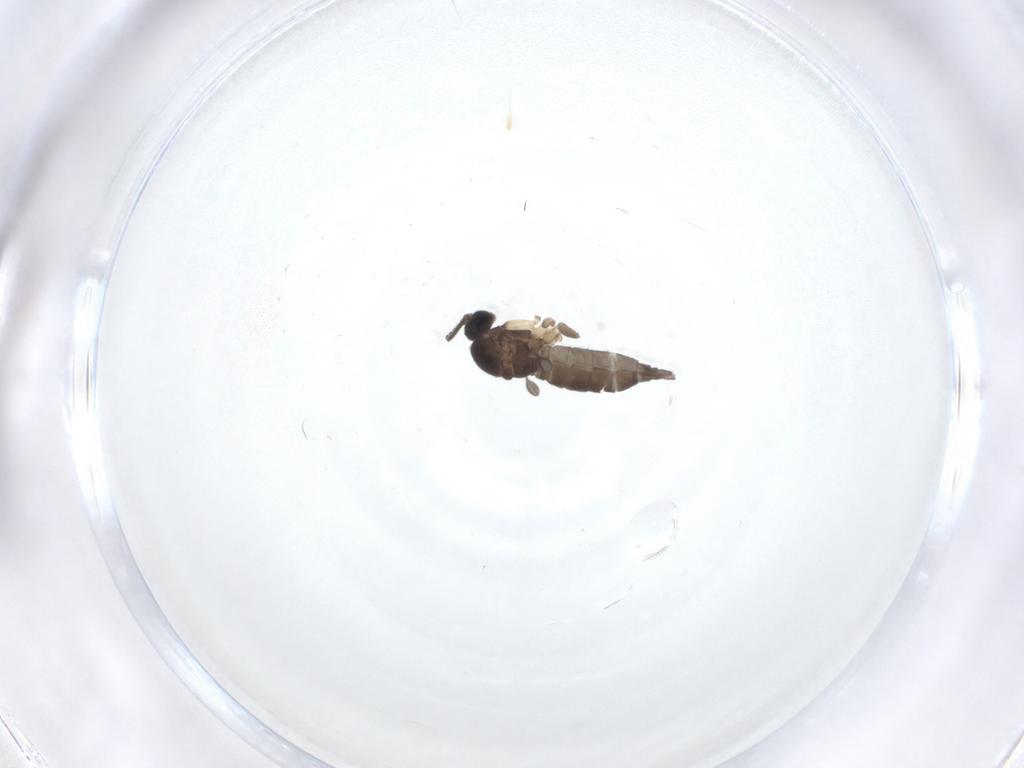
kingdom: Animalia
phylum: Arthropoda
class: Insecta
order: Diptera
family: Sciaridae
